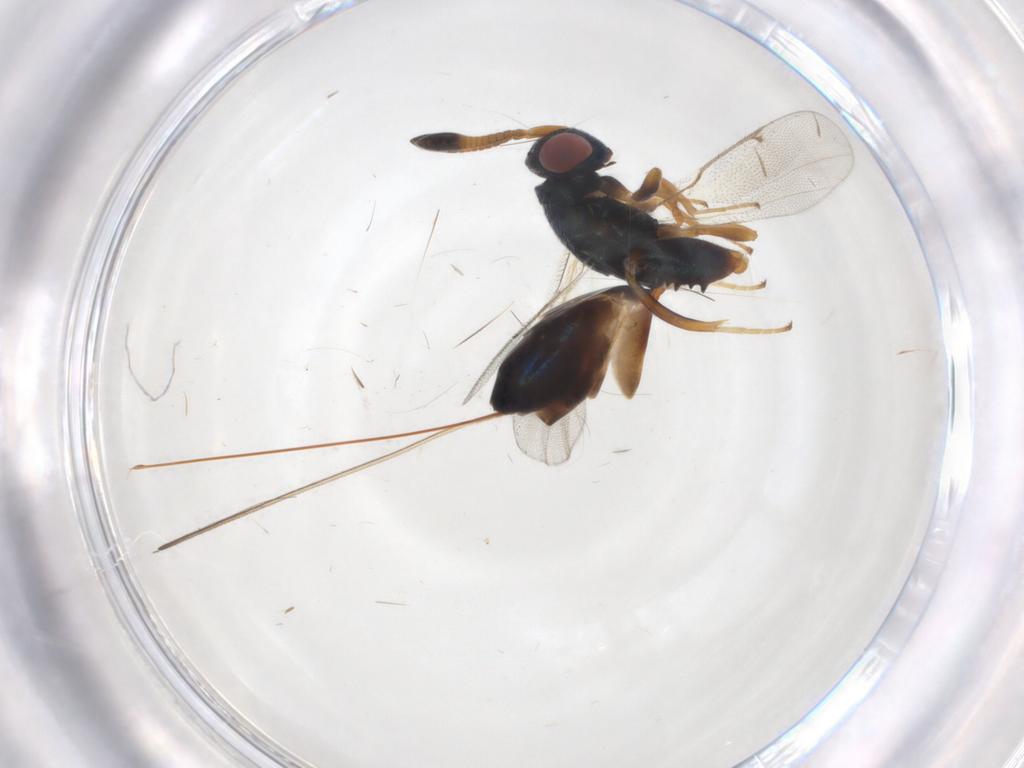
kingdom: Animalia
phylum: Arthropoda
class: Insecta
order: Hymenoptera
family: Torymidae
